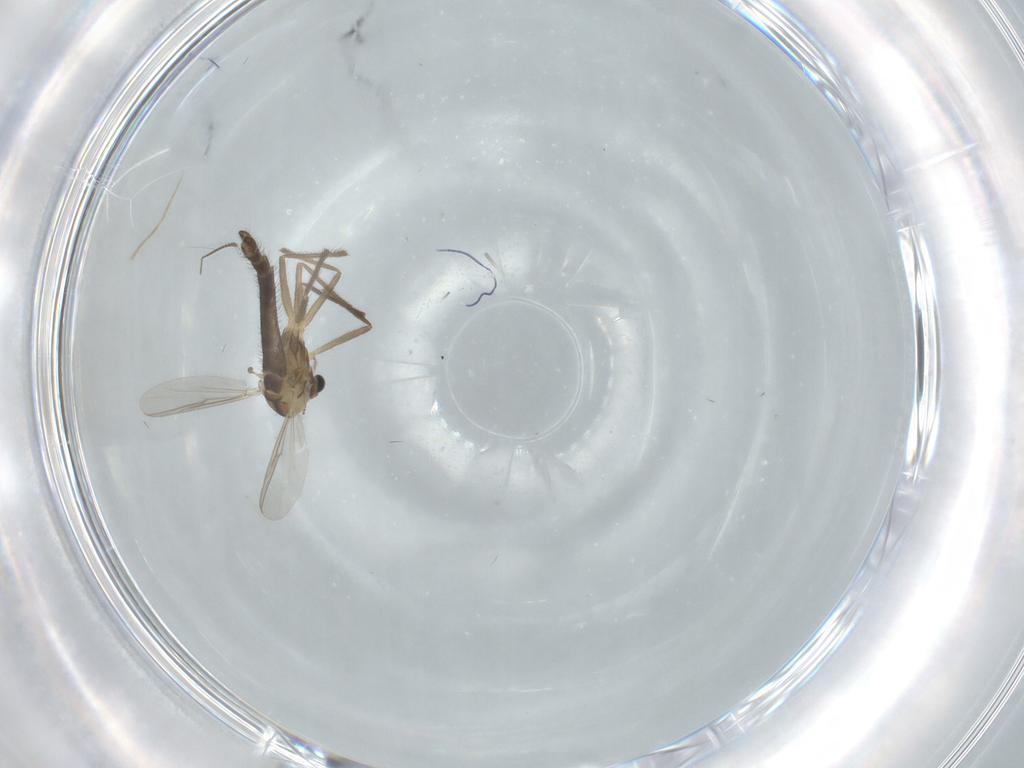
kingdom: Animalia
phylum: Arthropoda
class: Insecta
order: Diptera
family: Chironomidae
